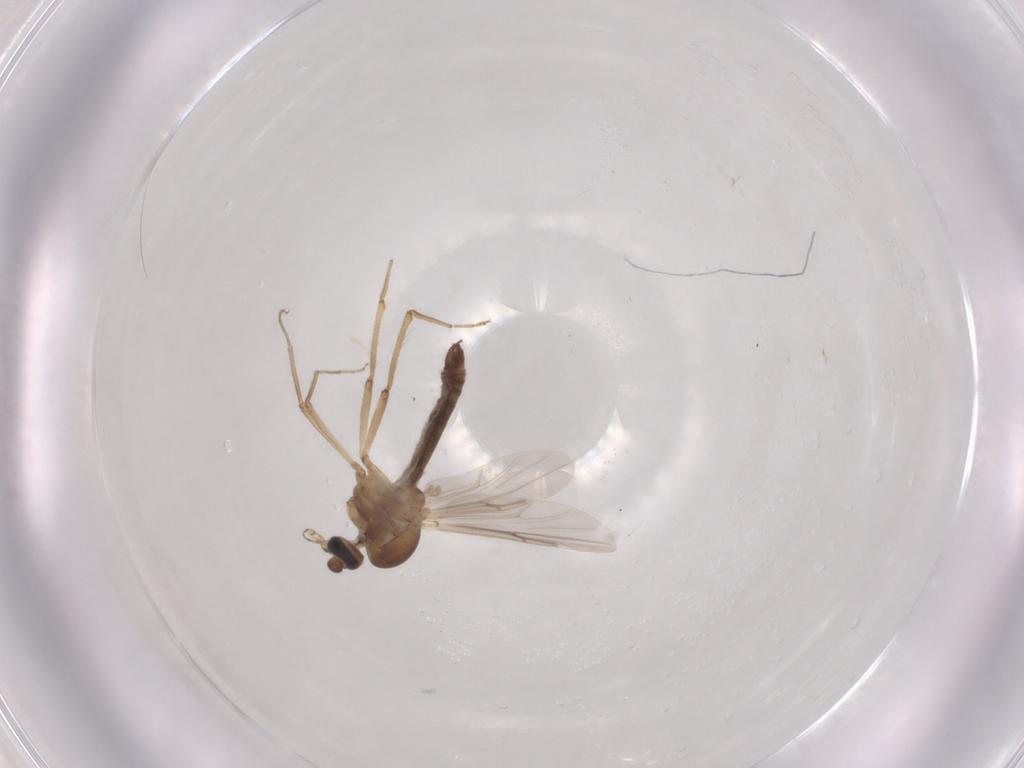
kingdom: Animalia
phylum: Arthropoda
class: Insecta
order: Diptera
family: Ceratopogonidae
